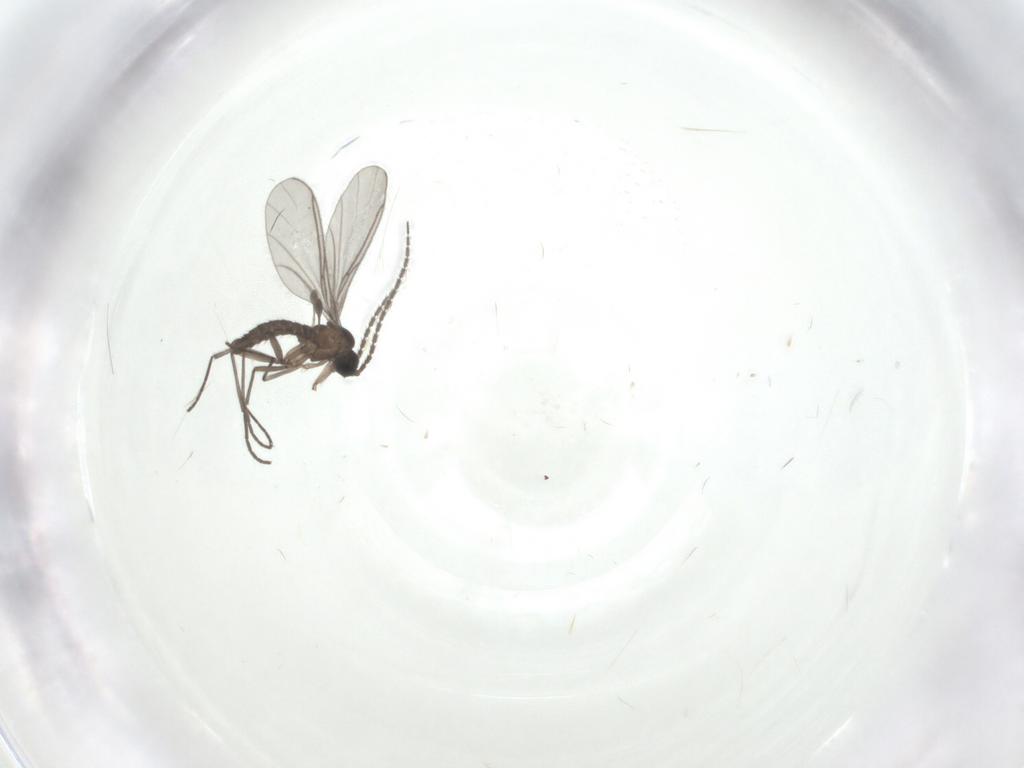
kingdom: Animalia
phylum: Arthropoda
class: Insecta
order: Diptera
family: Sciaridae
